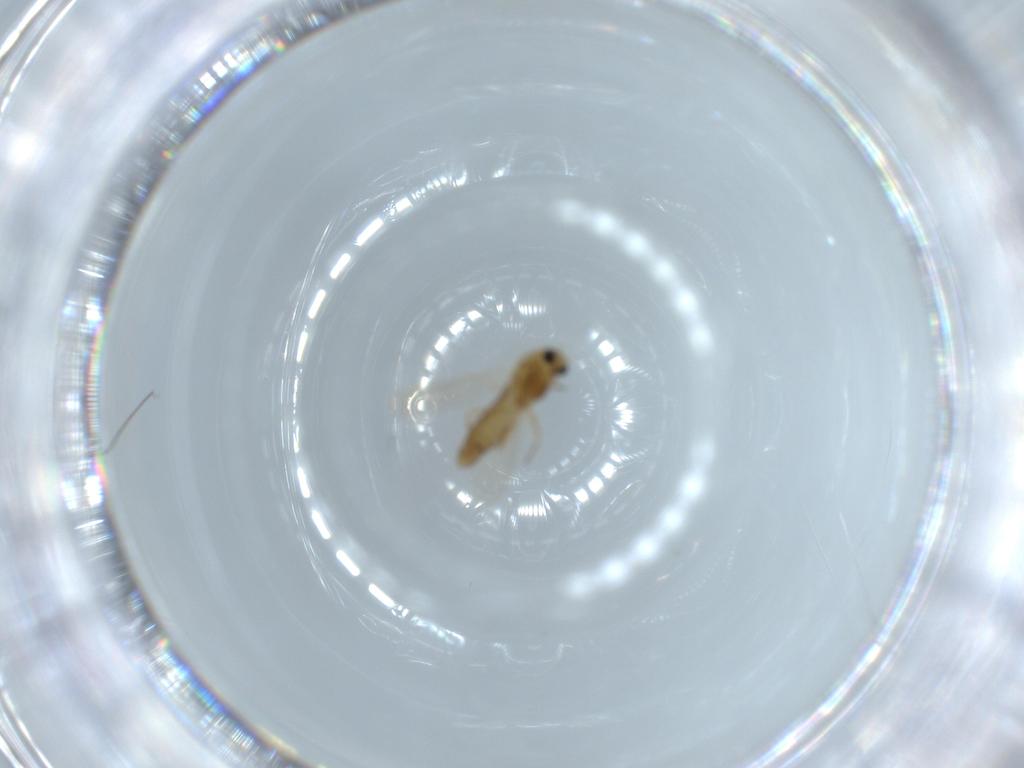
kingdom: Animalia
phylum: Arthropoda
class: Insecta
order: Diptera
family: Chironomidae
